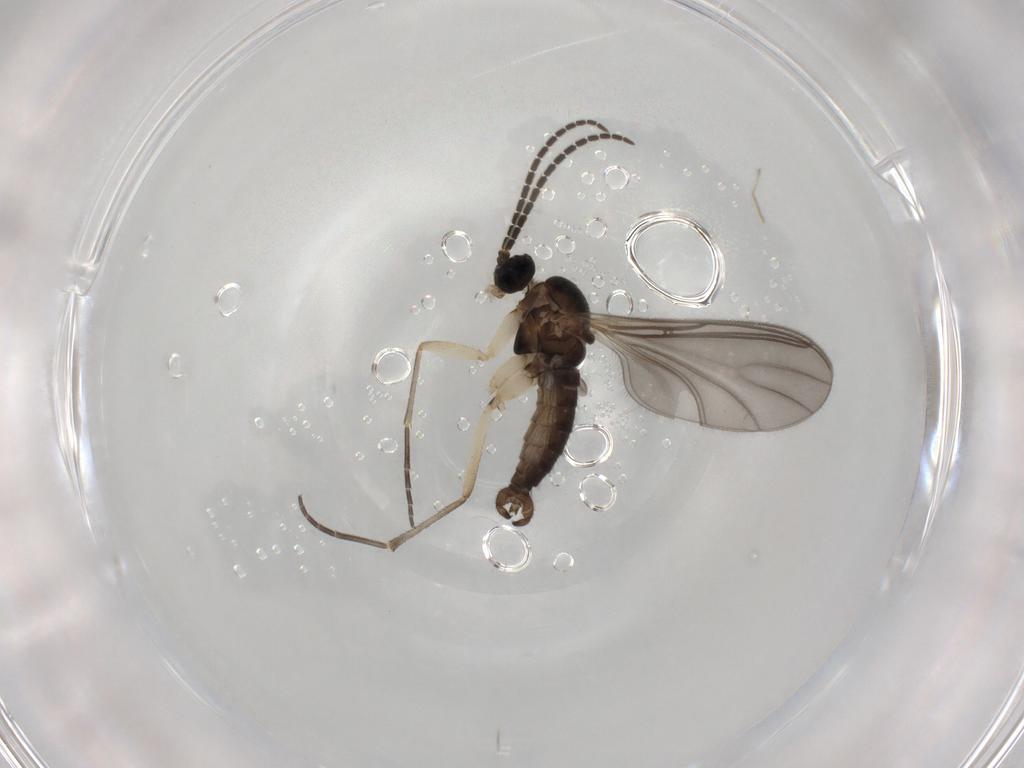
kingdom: Animalia
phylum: Arthropoda
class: Insecta
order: Diptera
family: Sciaridae
